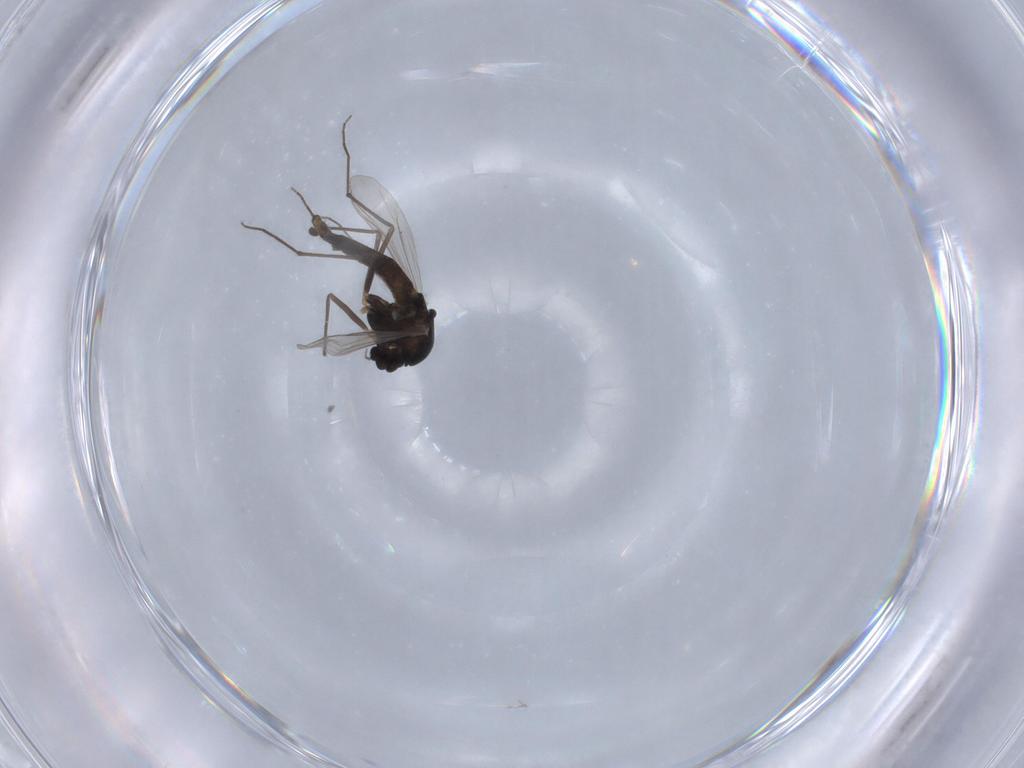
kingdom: Animalia
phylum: Arthropoda
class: Insecta
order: Diptera
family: Chironomidae
